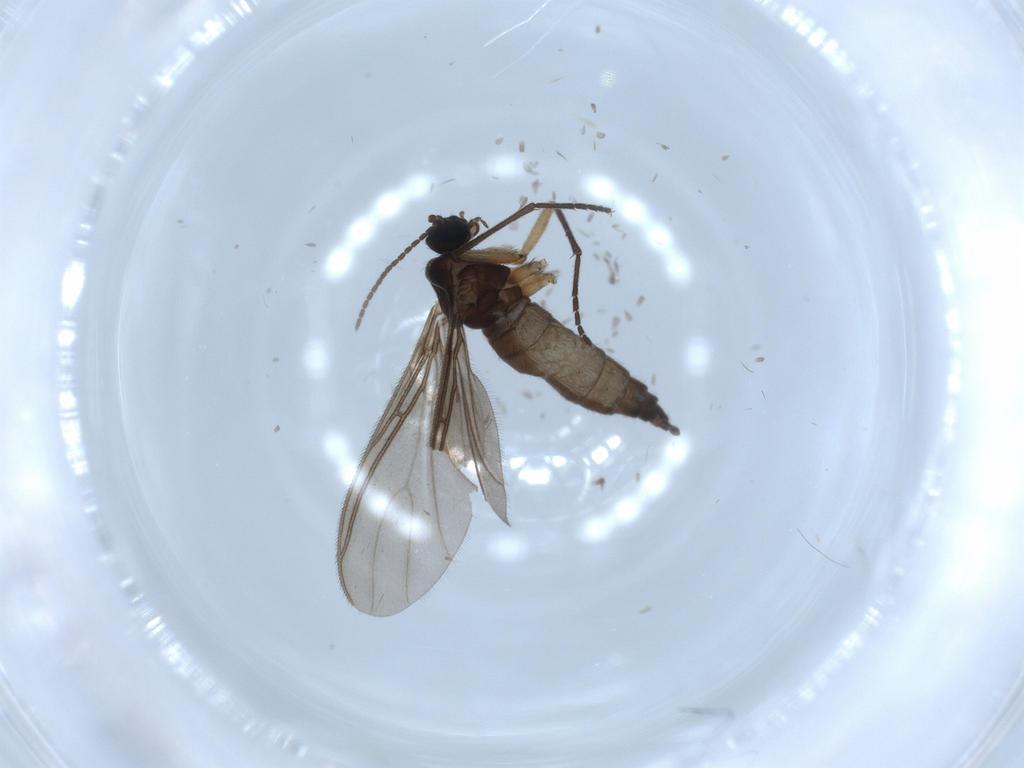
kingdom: Animalia
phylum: Arthropoda
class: Insecta
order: Diptera
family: Sciaridae
